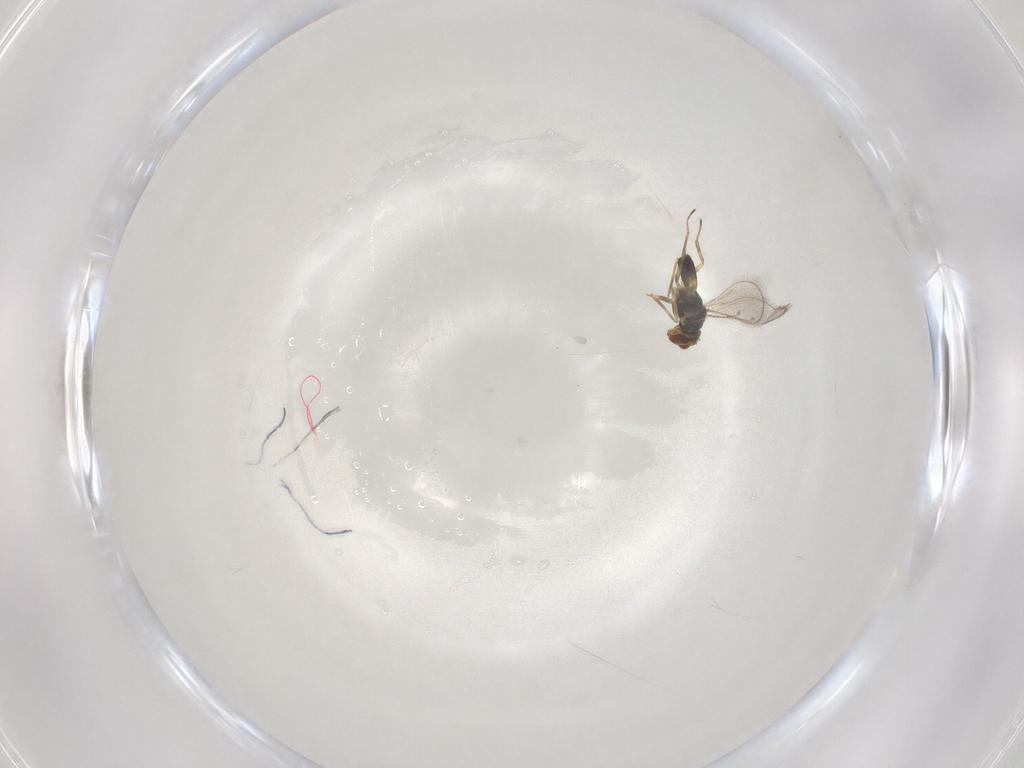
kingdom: Animalia
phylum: Arthropoda
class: Insecta
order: Hymenoptera
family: Eulophidae
